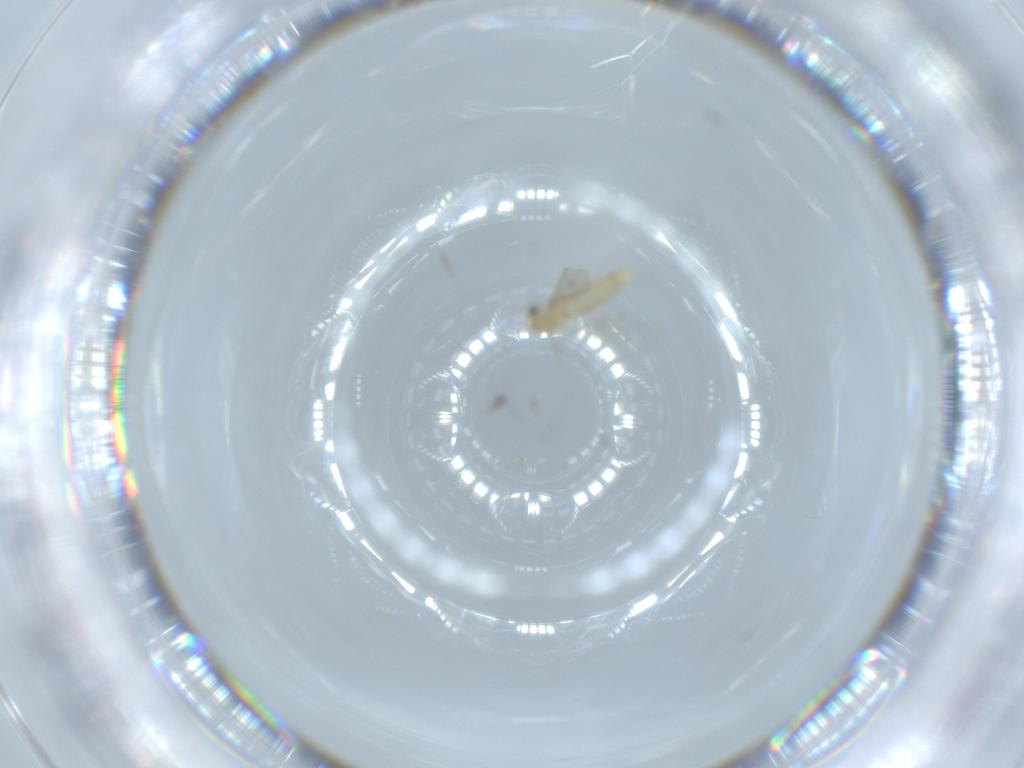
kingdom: Animalia
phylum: Arthropoda
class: Insecta
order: Diptera
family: Chironomidae
